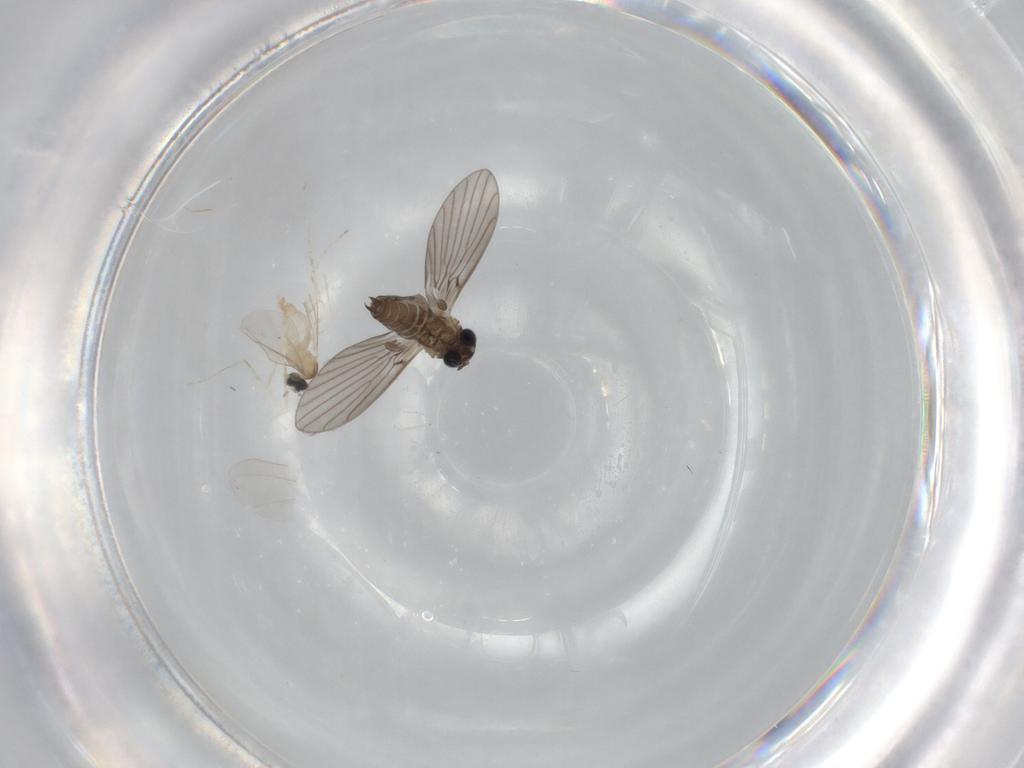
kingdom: Animalia
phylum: Arthropoda
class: Insecta
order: Diptera
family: Cecidomyiidae
